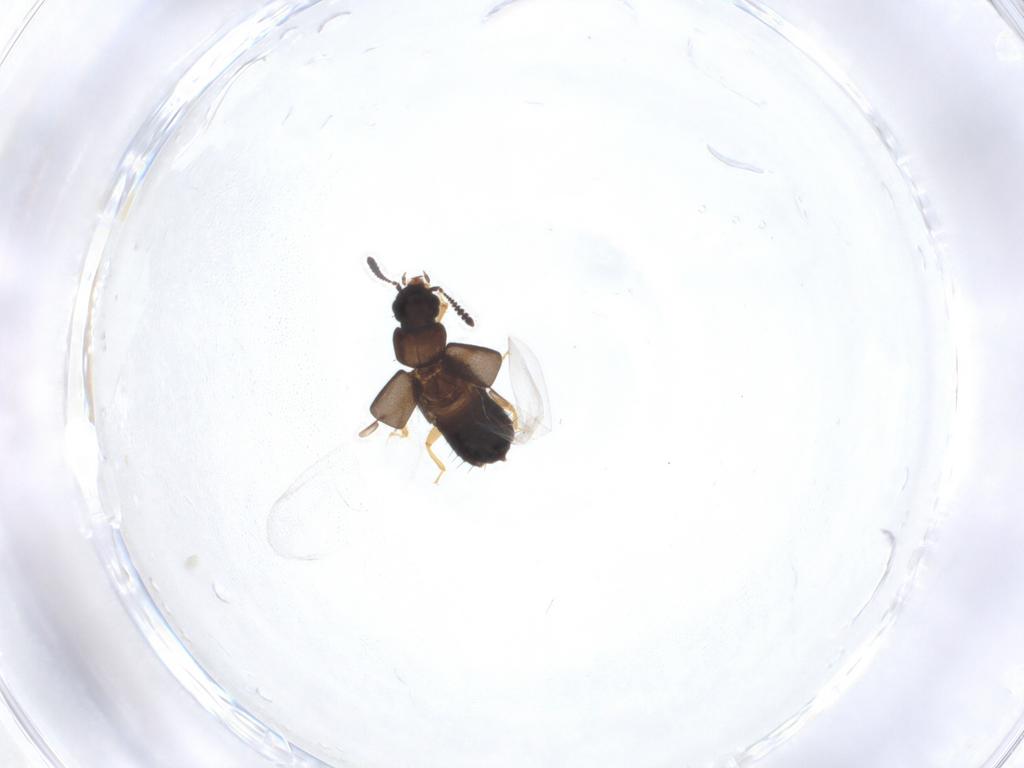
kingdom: Animalia
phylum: Arthropoda
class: Insecta
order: Coleoptera
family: Staphylinidae
